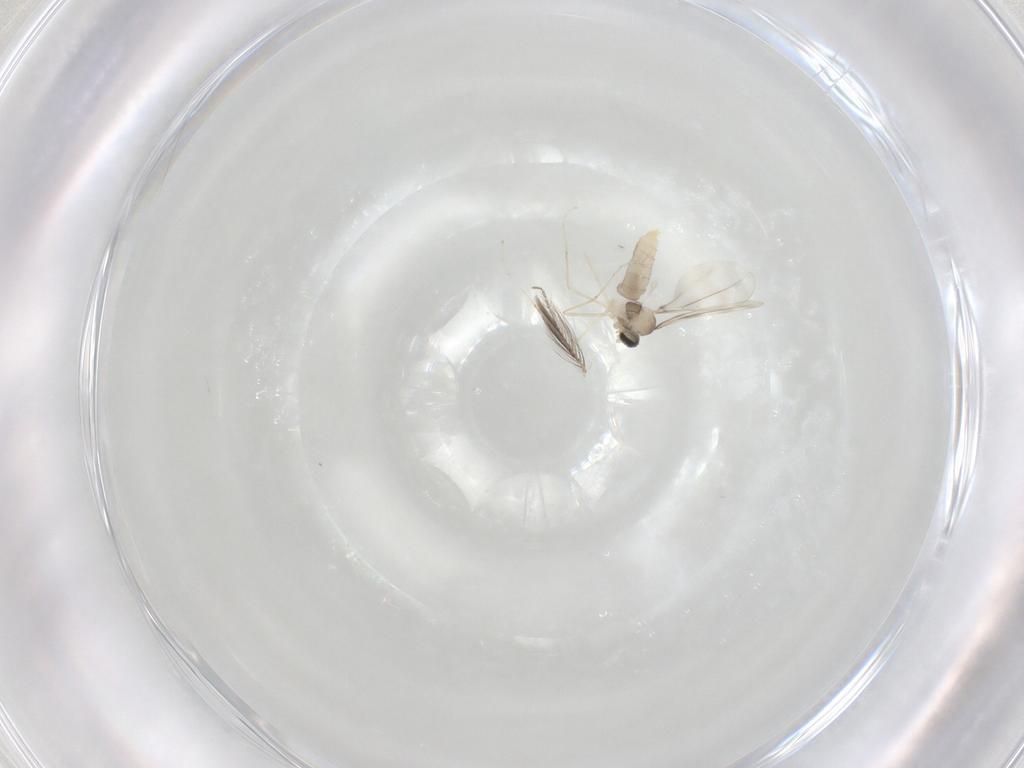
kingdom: Animalia
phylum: Arthropoda
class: Insecta
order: Diptera
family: Ceratopogonidae
